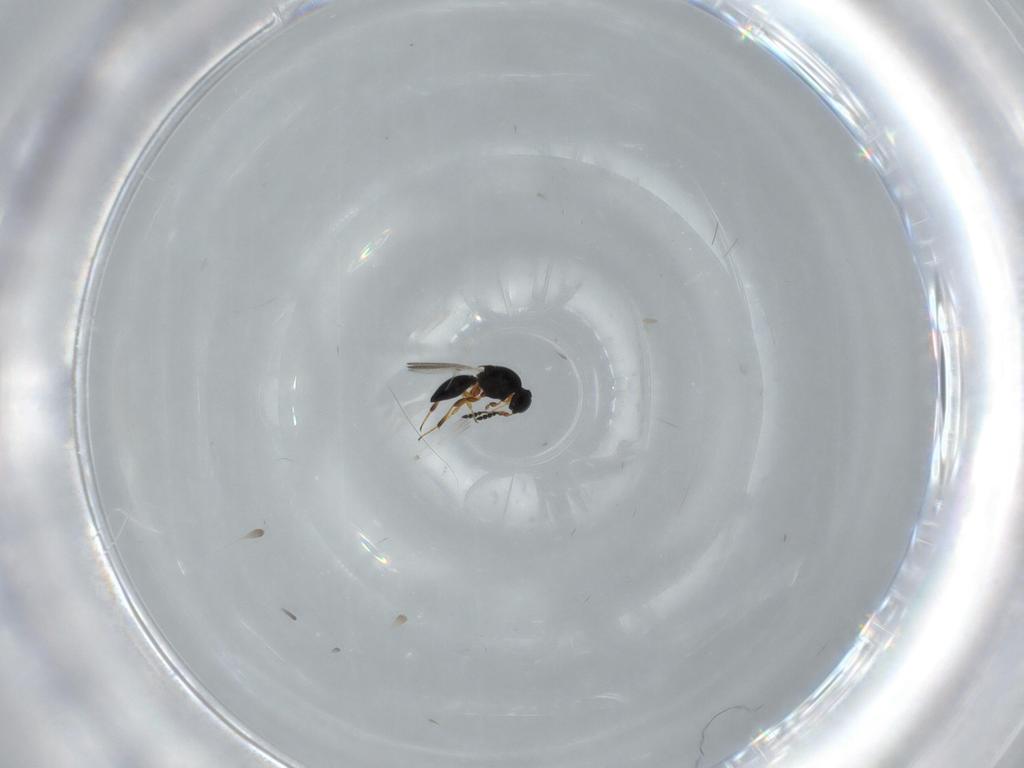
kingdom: Animalia
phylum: Arthropoda
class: Insecta
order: Hymenoptera
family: Platygastridae
